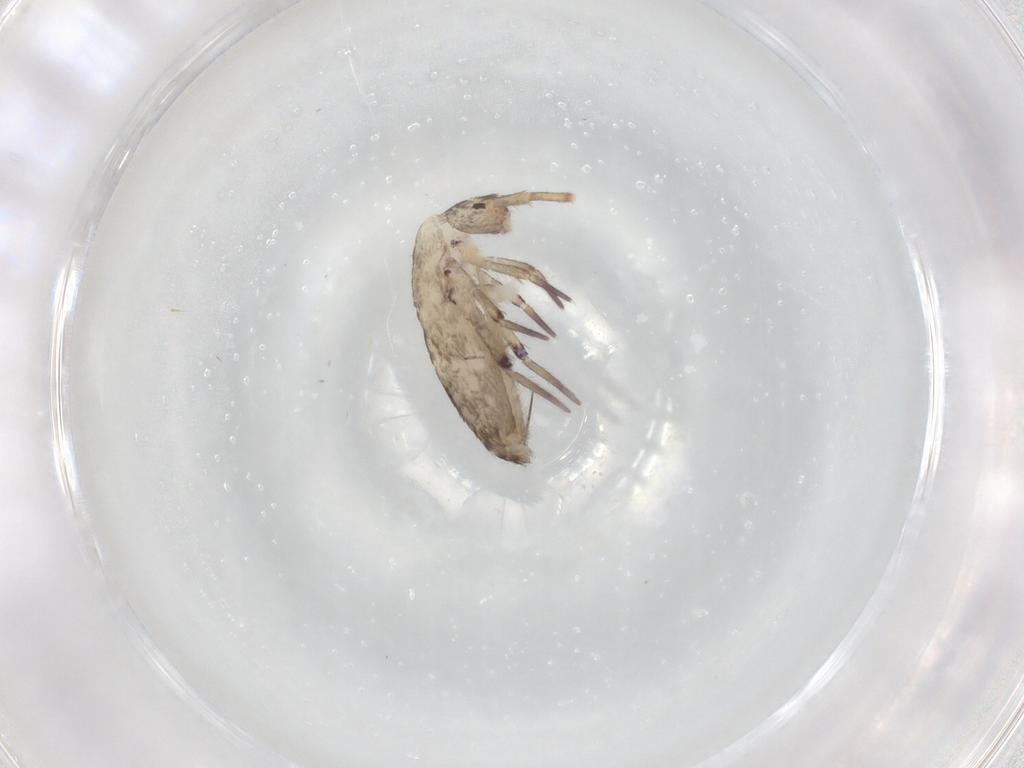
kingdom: Animalia
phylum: Arthropoda
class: Collembola
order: Entomobryomorpha
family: Entomobryidae
